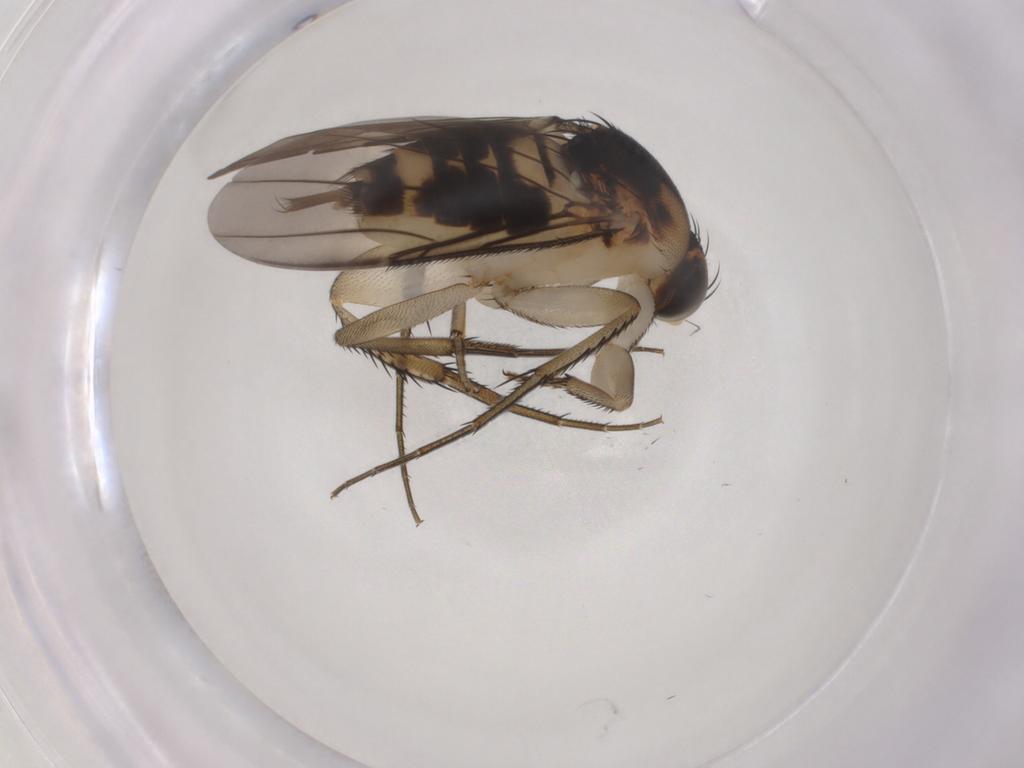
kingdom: Animalia
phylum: Arthropoda
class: Insecta
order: Diptera
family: Phoridae
